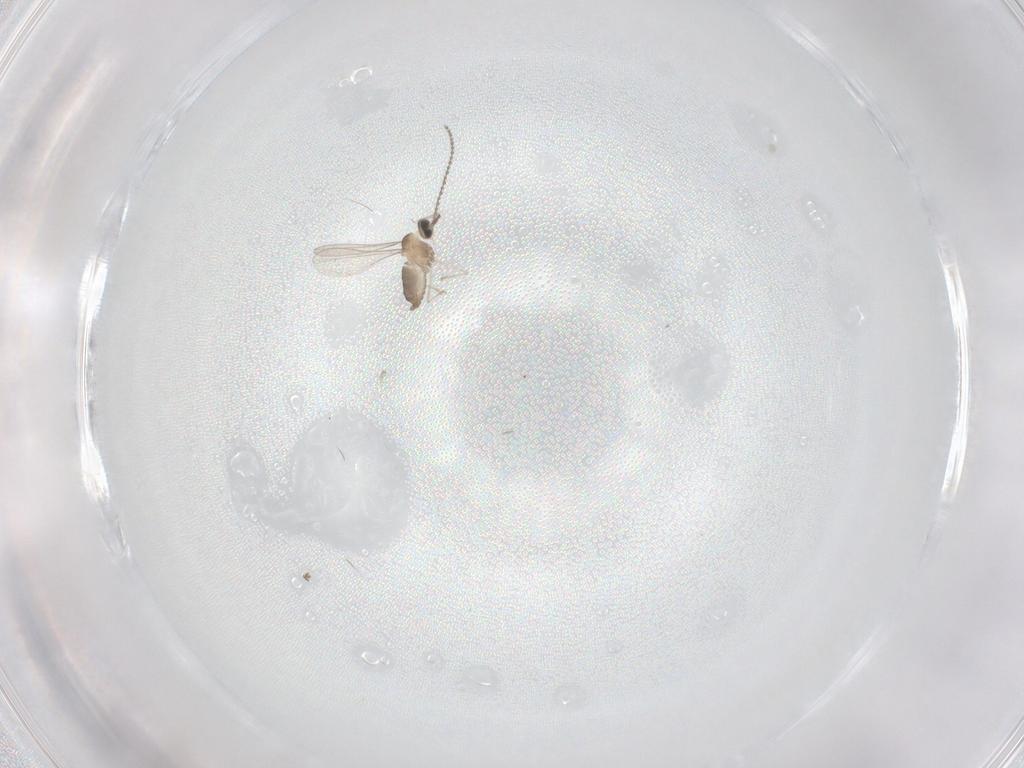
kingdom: Animalia
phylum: Arthropoda
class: Insecta
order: Diptera
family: Cecidomyiidae
